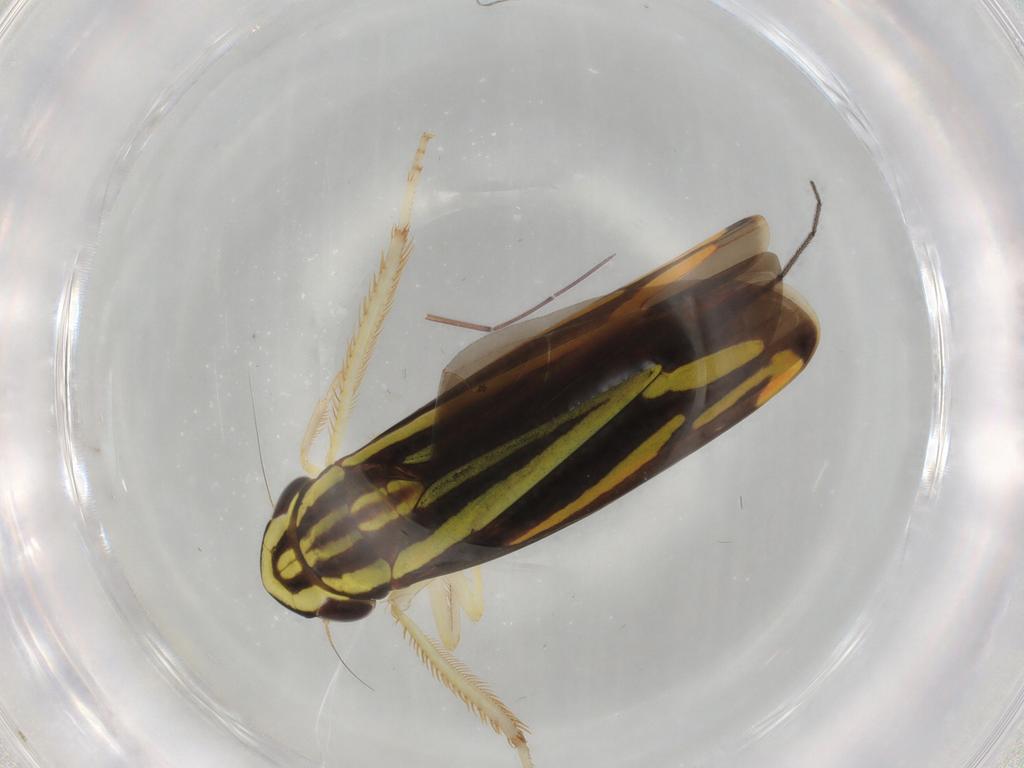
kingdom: Animalia
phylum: Arthropoda
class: Insecta
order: Hemiptera
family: Cicadellidae
